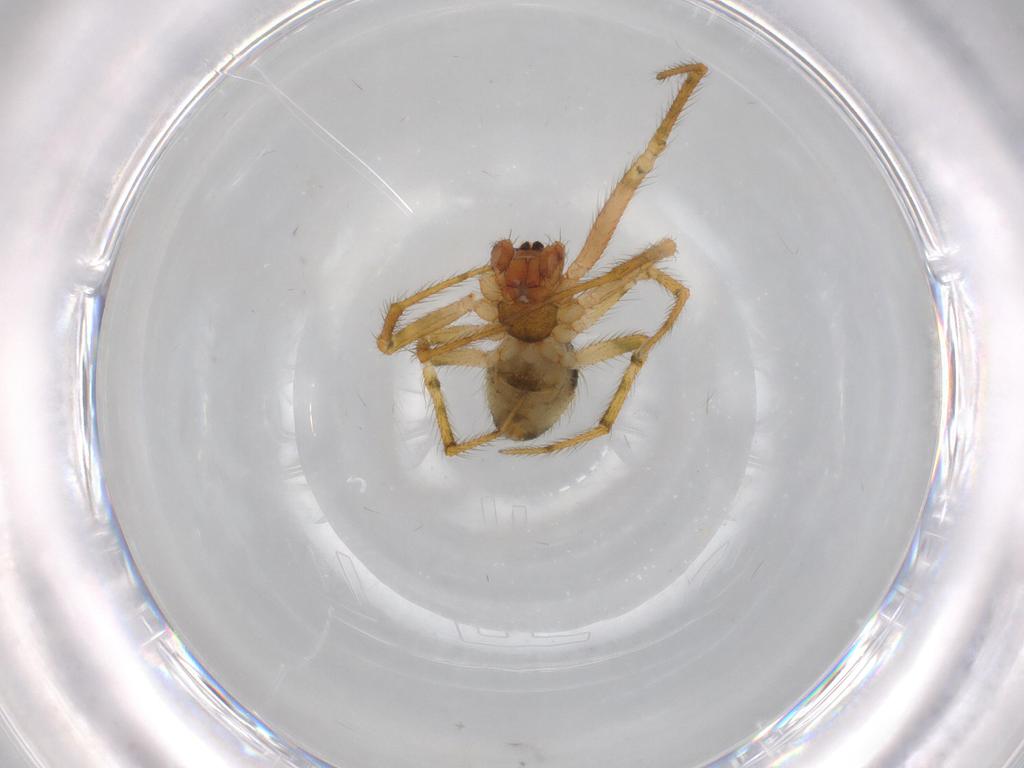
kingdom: Animalia
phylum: Arthropoda
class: Arachnida
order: Araneae
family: Theridiidae
